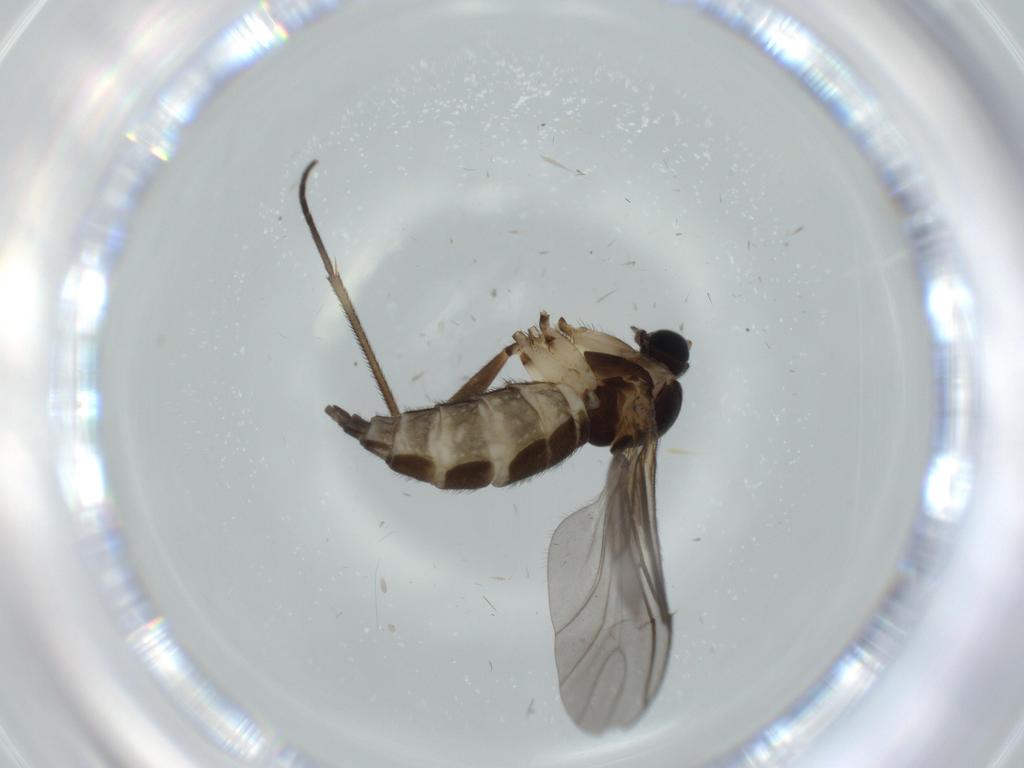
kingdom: Animalia
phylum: Arthropoda
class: Insecta
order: Diptera
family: Sciaridae
